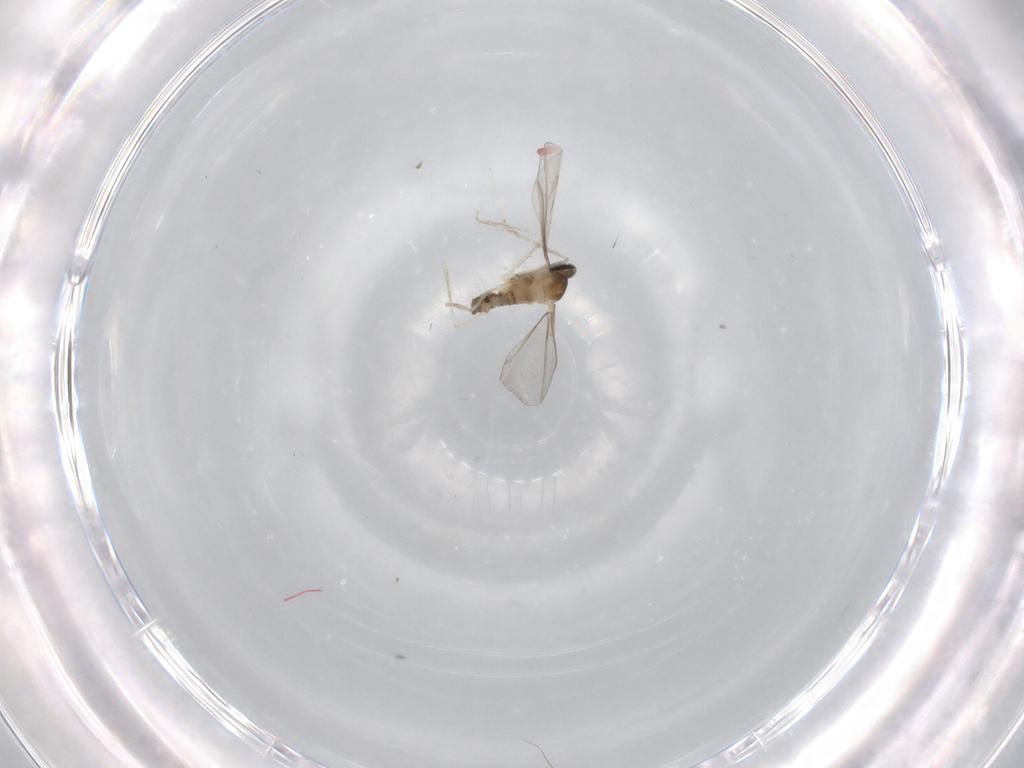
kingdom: Animalia
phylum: Arthropoda
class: Insecta
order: Diptera
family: Cecidomyiidae
